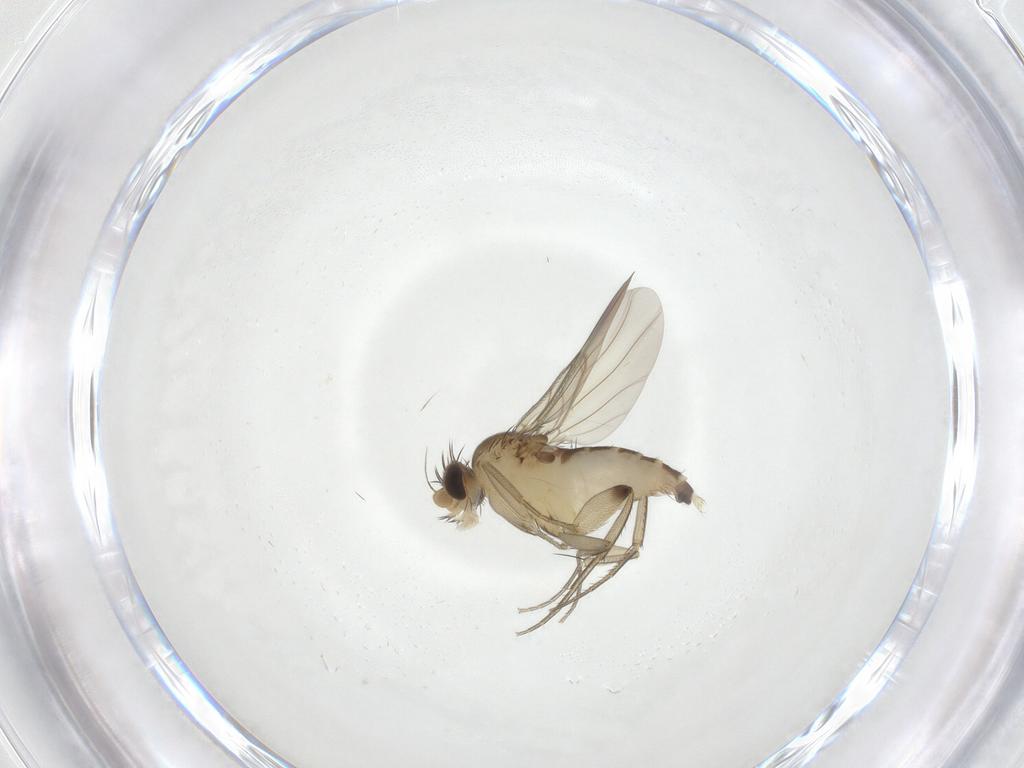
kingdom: Animalia
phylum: Arthropoda
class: Insecta
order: Diptera
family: Phoridae
